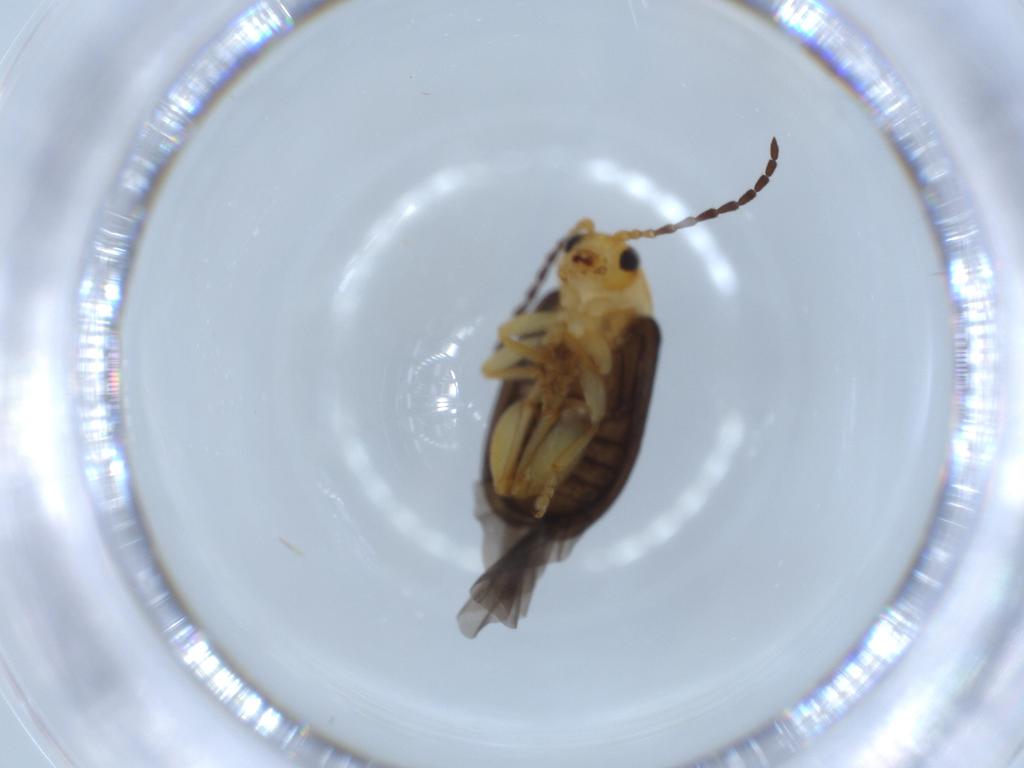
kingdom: Animalia
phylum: Arthropoda
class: Insecta
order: Coleoptera
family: Chrysomelidae
